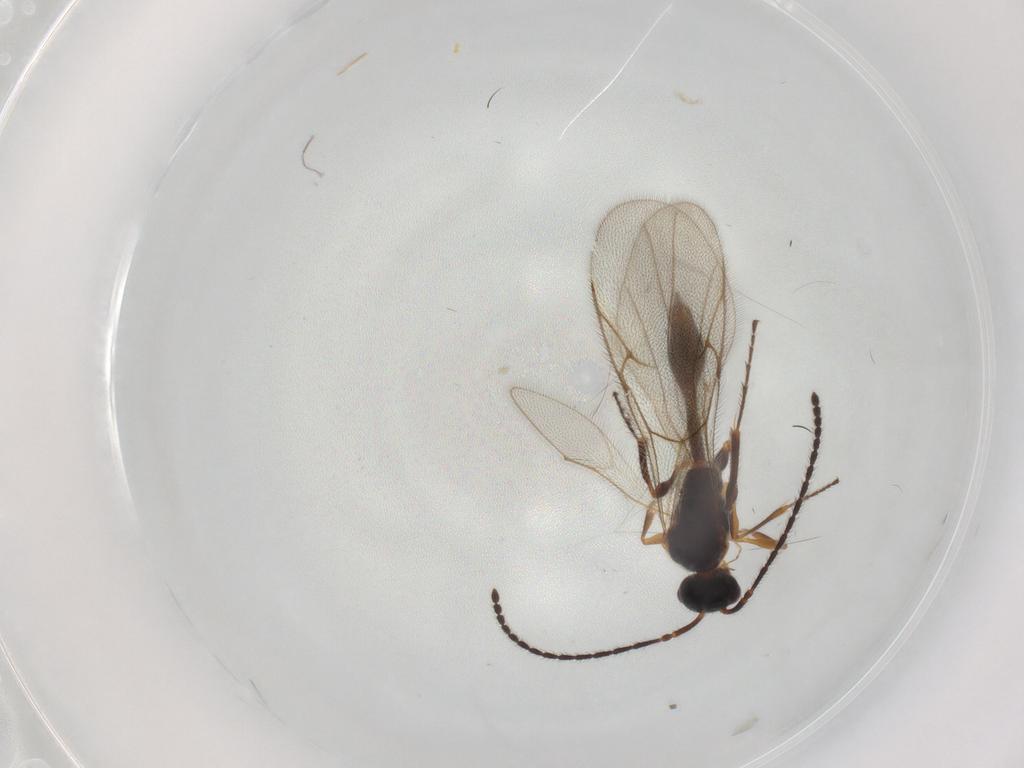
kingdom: Animalia
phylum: Arthropoda
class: Insecta
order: Hymenoptera
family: Diapriidae
